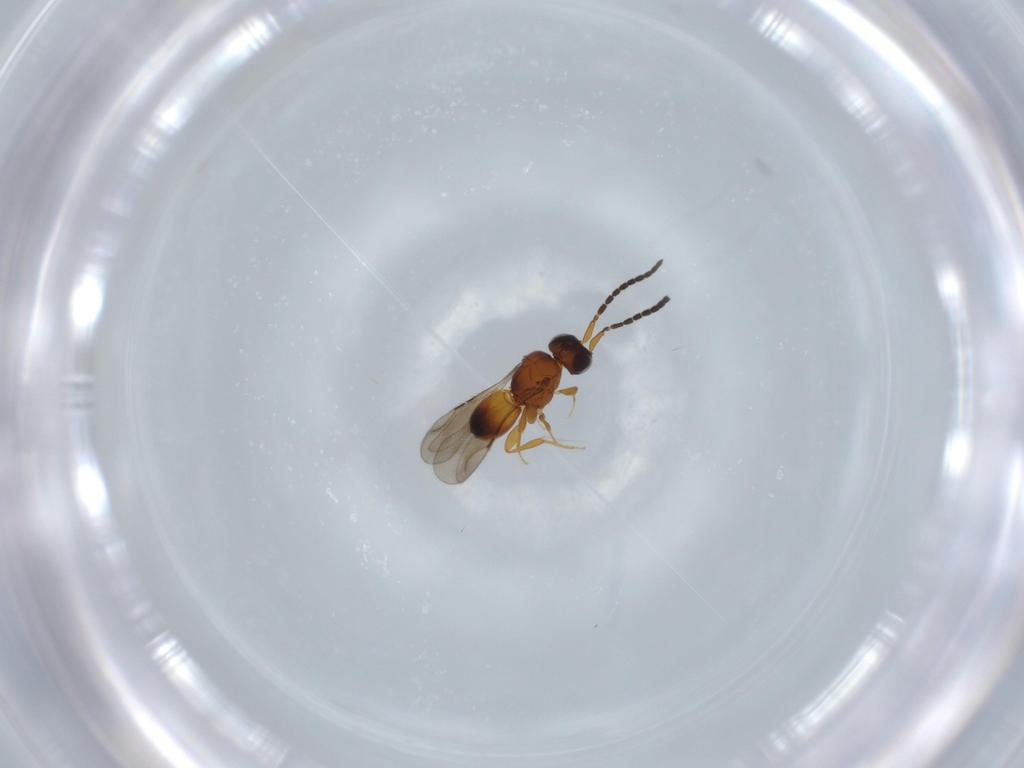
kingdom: Animalia
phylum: Arthropoda
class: Insecta
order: Hymenoptera
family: Ceraphronidae
